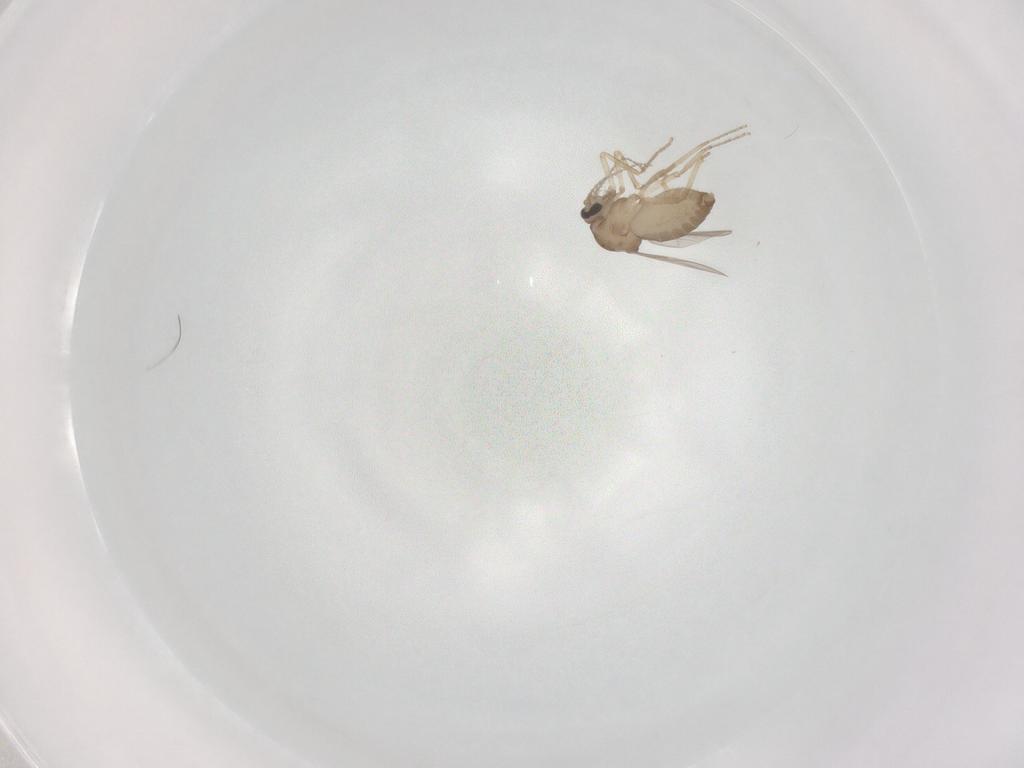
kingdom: Animalia
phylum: Arthropoda
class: Insecta
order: Diptera
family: Ceratopogonidae
